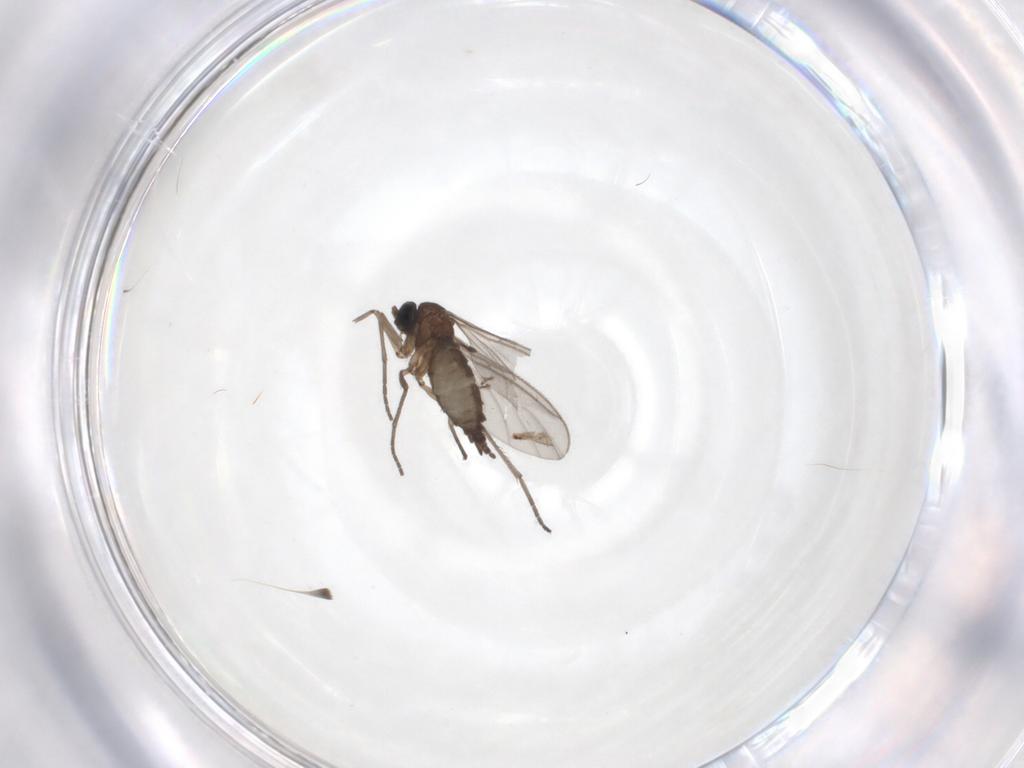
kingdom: Animalia
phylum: Arthropoda
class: Insecta
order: Diptera
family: Sciaridae
